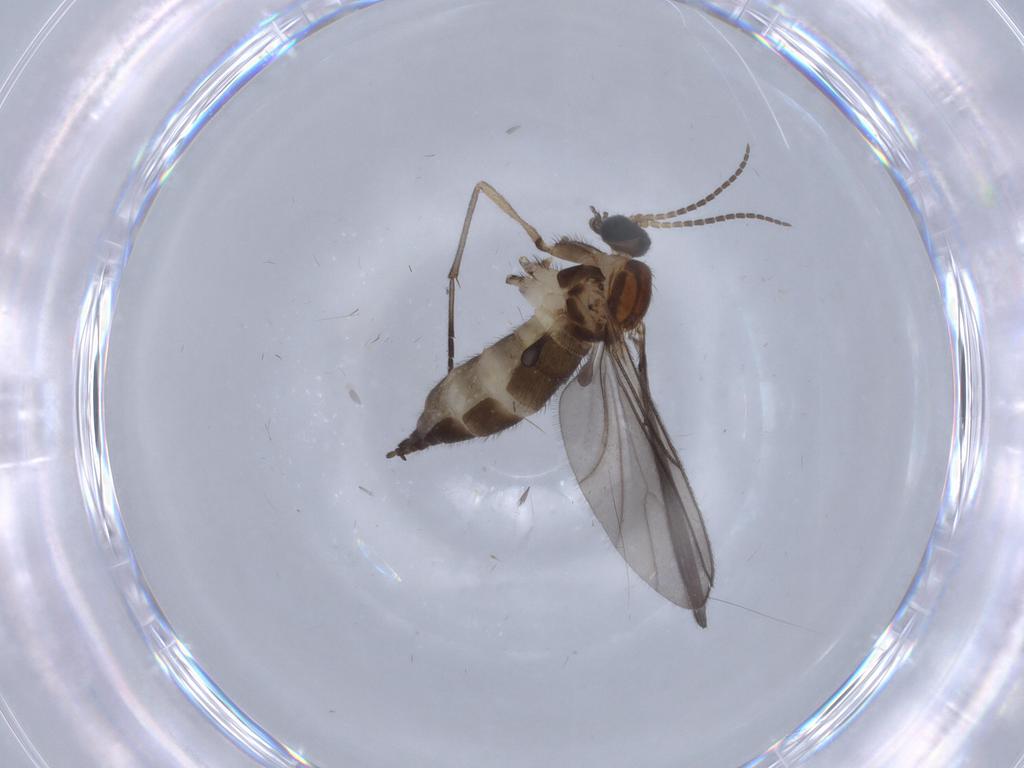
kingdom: Animalia
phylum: Arthropoda
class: Insecta
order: Diptera
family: Sciaridae
